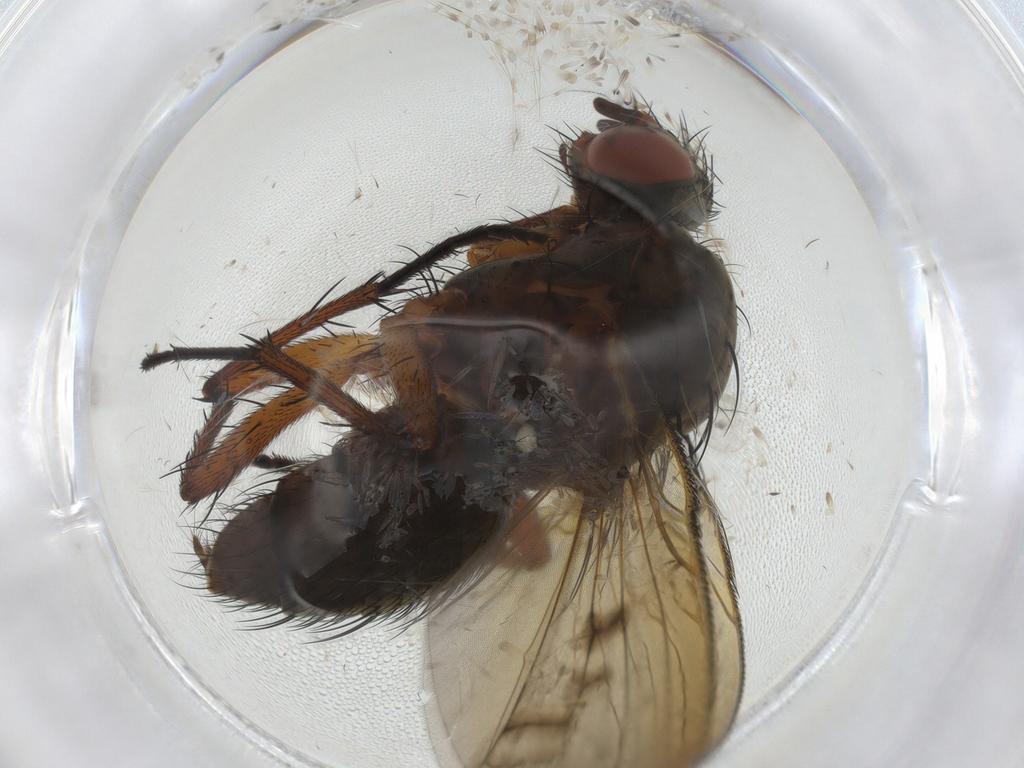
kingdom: Animalia
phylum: Arthropoda
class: Insecta
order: Diptera
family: Anthomyiidae
